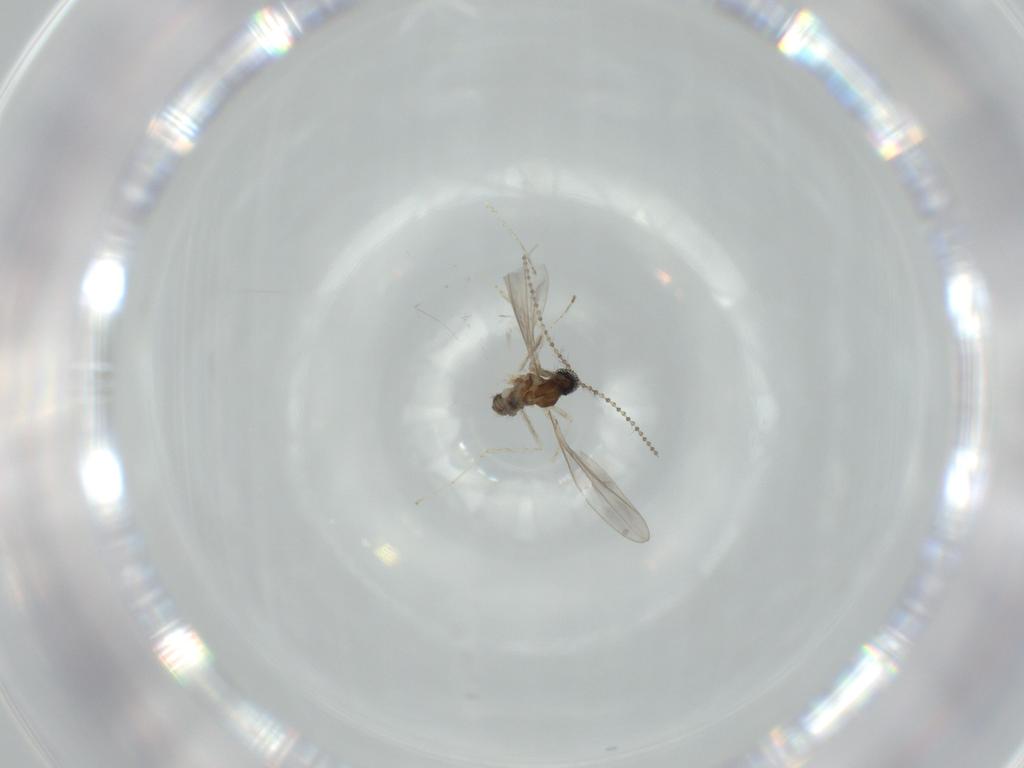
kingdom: Animalia
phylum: Arthropoda
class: Insecta
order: Diptera
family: Cecidomyiidae
